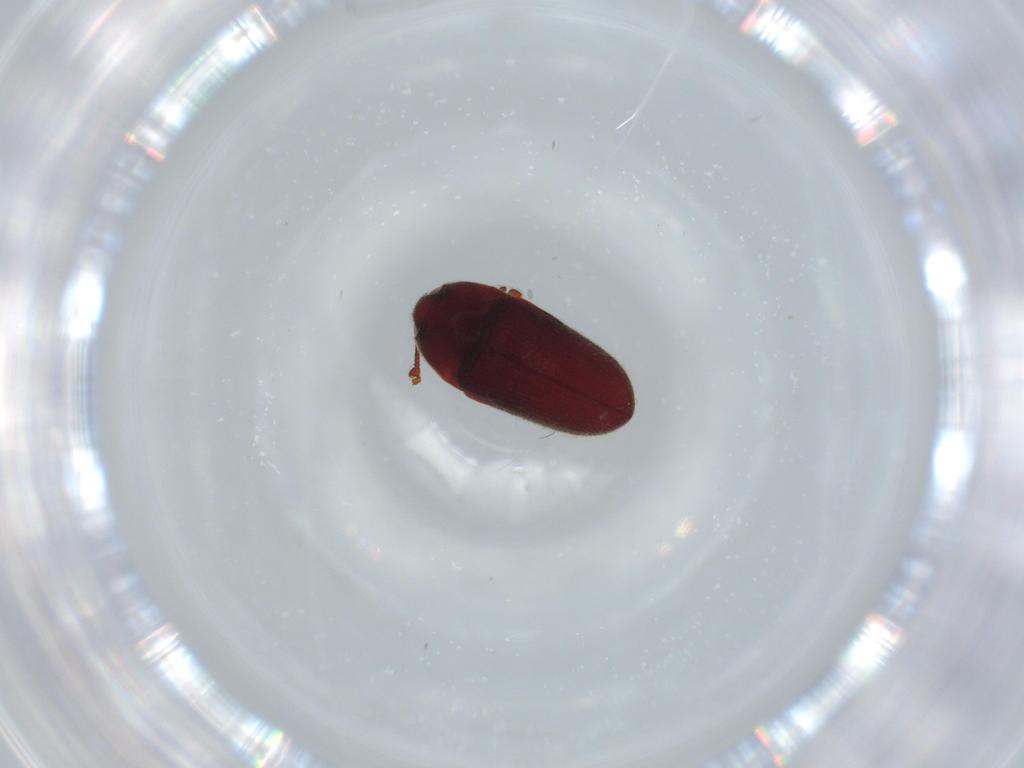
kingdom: Animalia
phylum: Arthropoda
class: Insecta
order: Coleoptera
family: Throscidae
